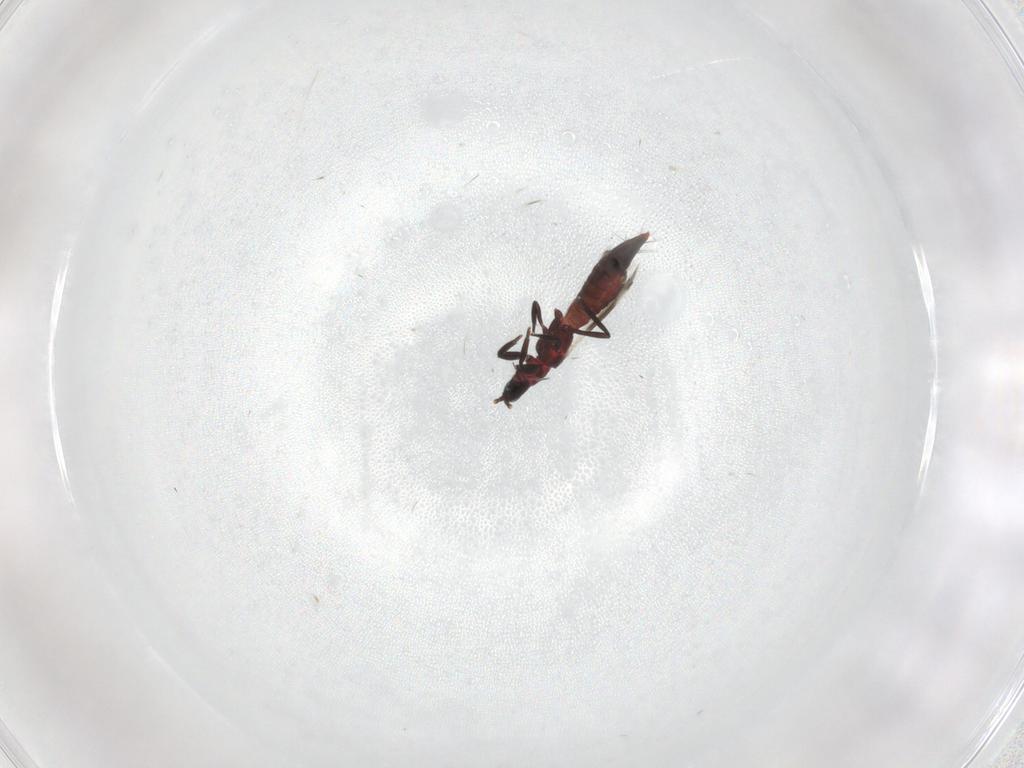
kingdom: Animalia
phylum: Arthropoda
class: Insecta
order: Thysanoptera
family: Aeolothripidae
